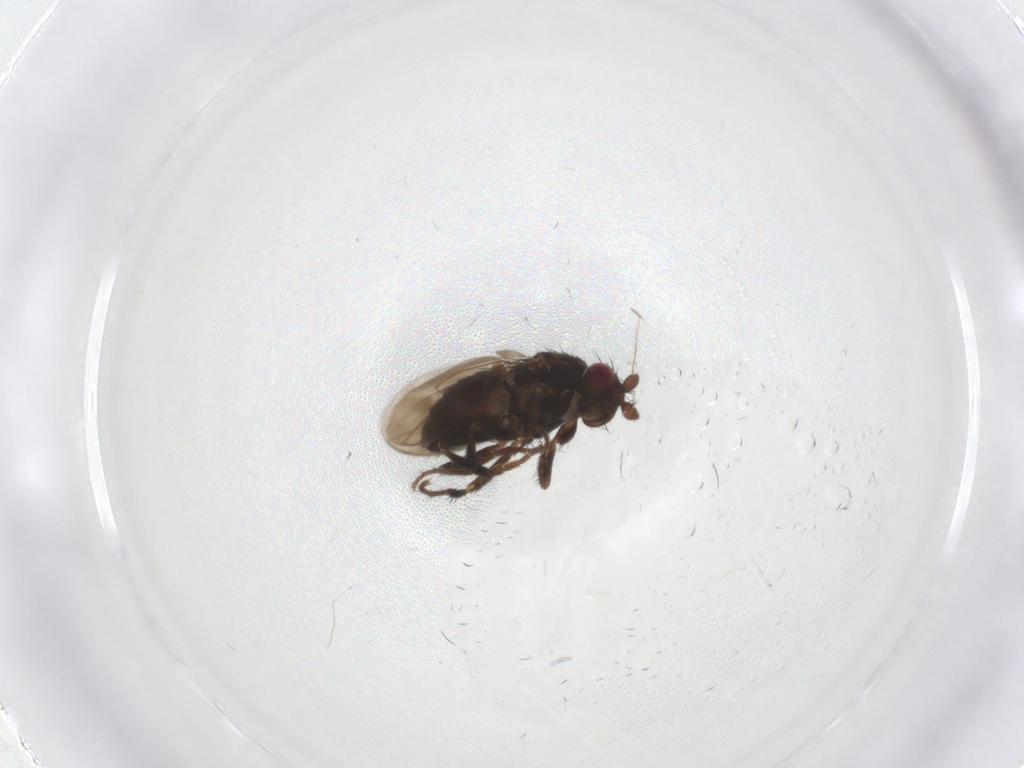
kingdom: Animalia
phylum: Arthropoda
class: Insecta
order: Diptera
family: Sphaeroceridae
